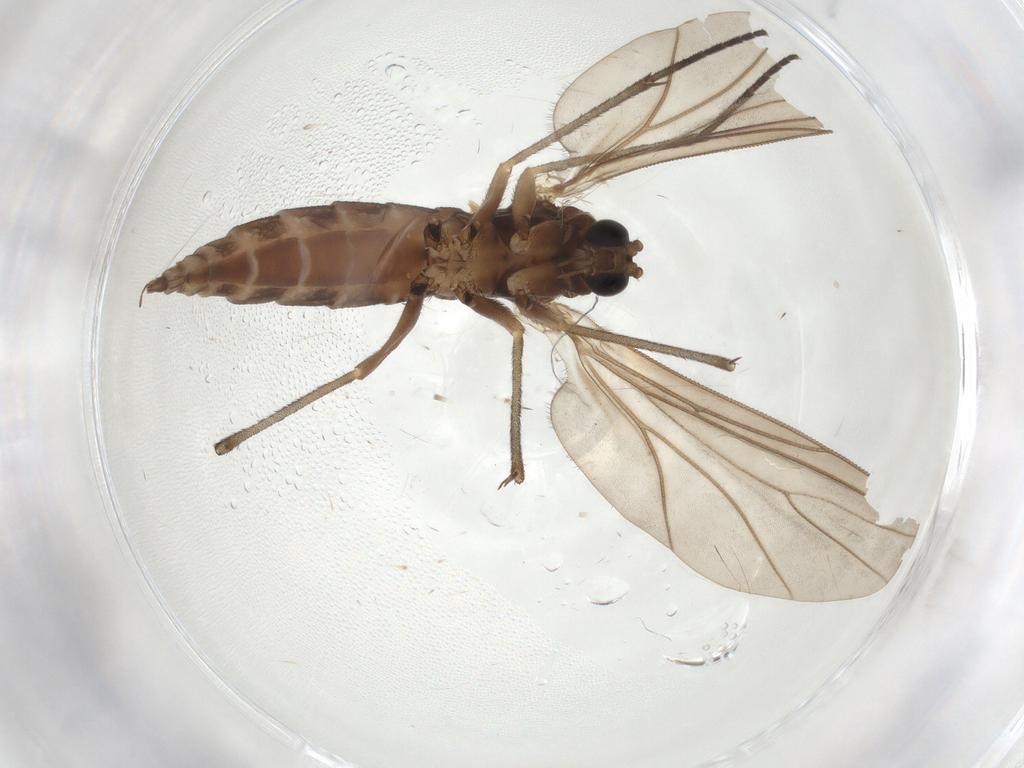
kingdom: Animalia
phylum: Arthropoda
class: Insecta
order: Diptera
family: Sciaridae
